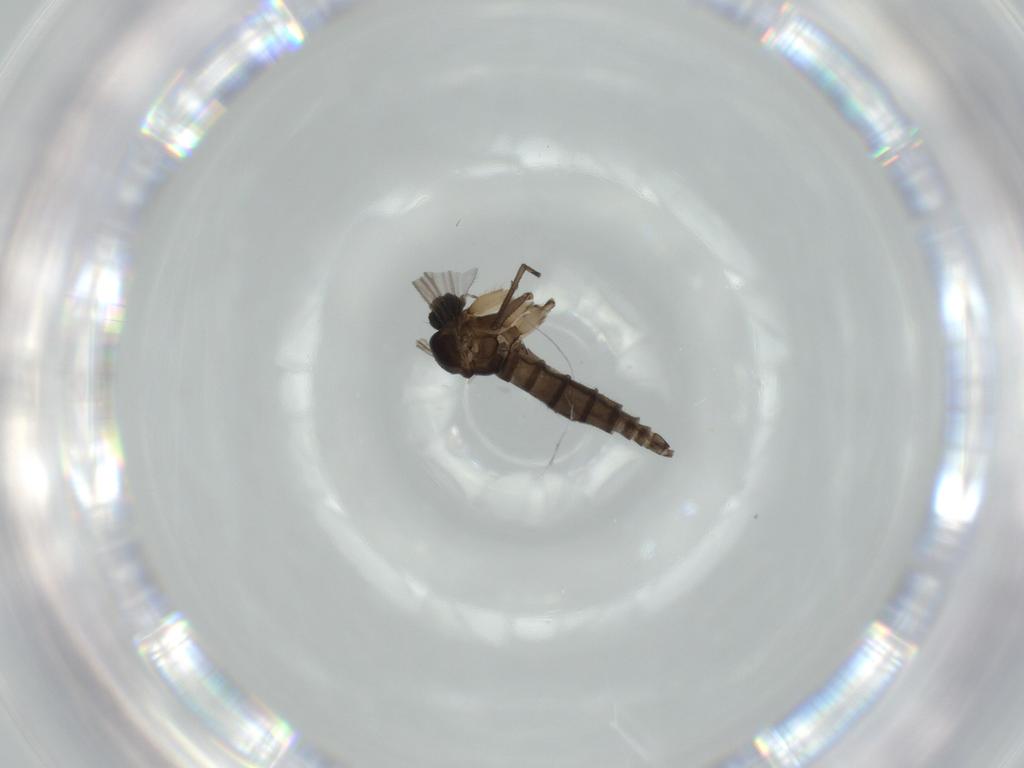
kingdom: Animalia
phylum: Arthropoda
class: Insecta
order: Diptera
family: Sciaridae
